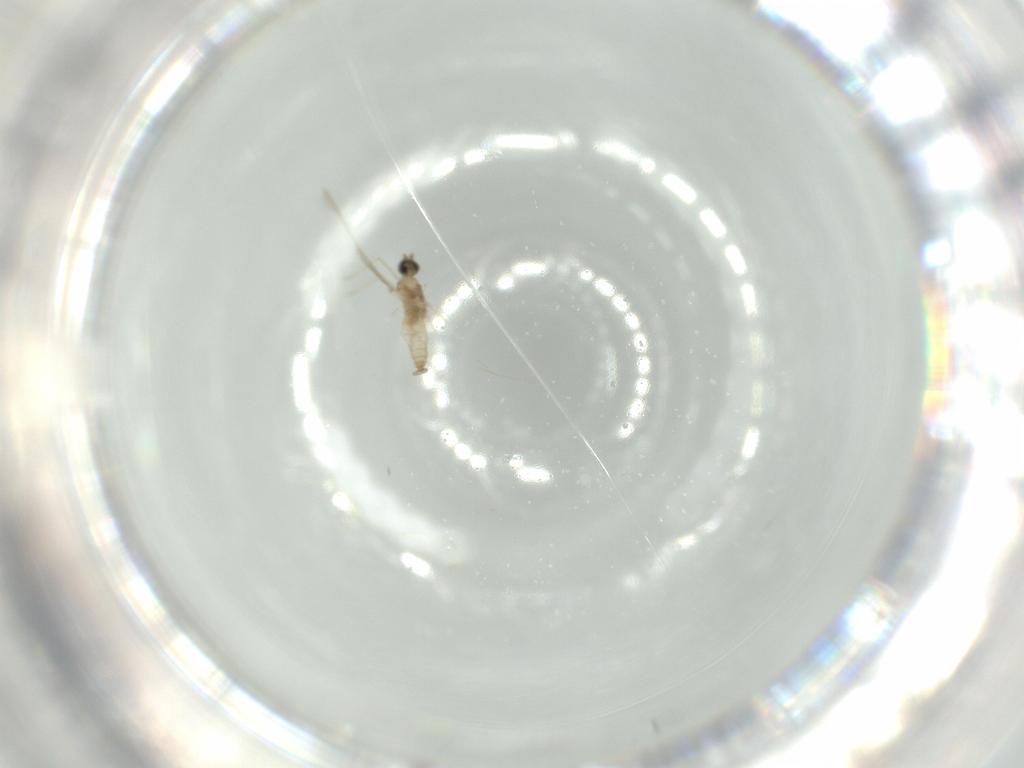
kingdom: Animalia
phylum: Arthropoda
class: Insecta
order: Diptera
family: Cecidomyiidae
